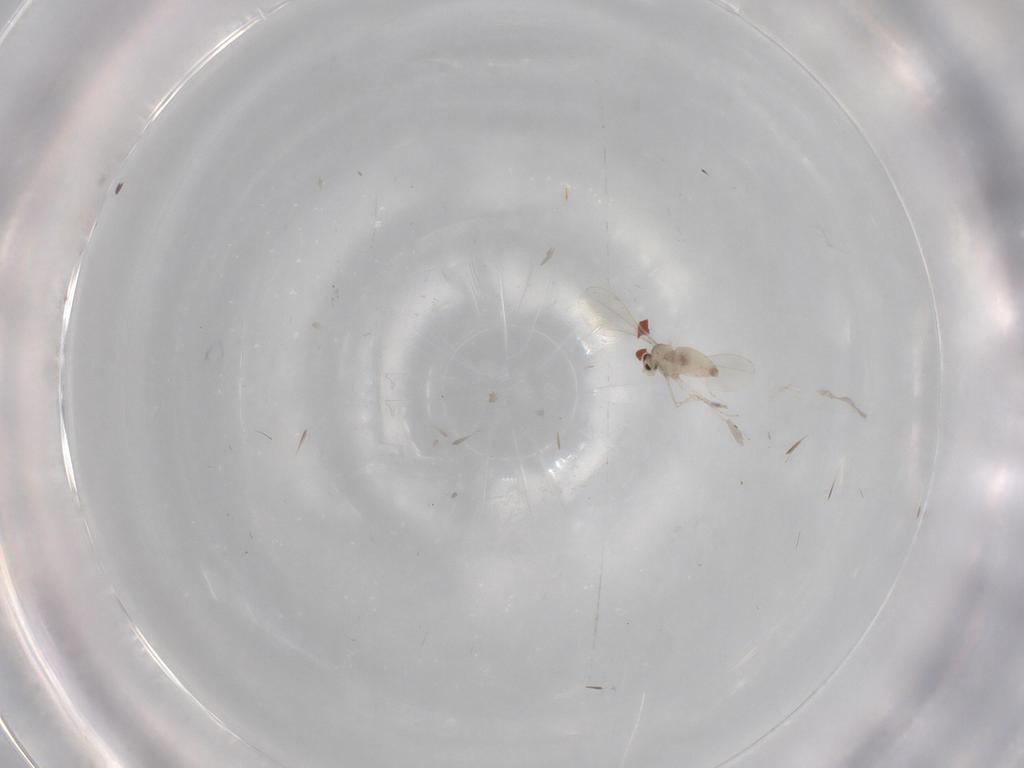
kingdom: Animalia
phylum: Arthropoda
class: Insecta
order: Diptera
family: Cecidomyiidae
